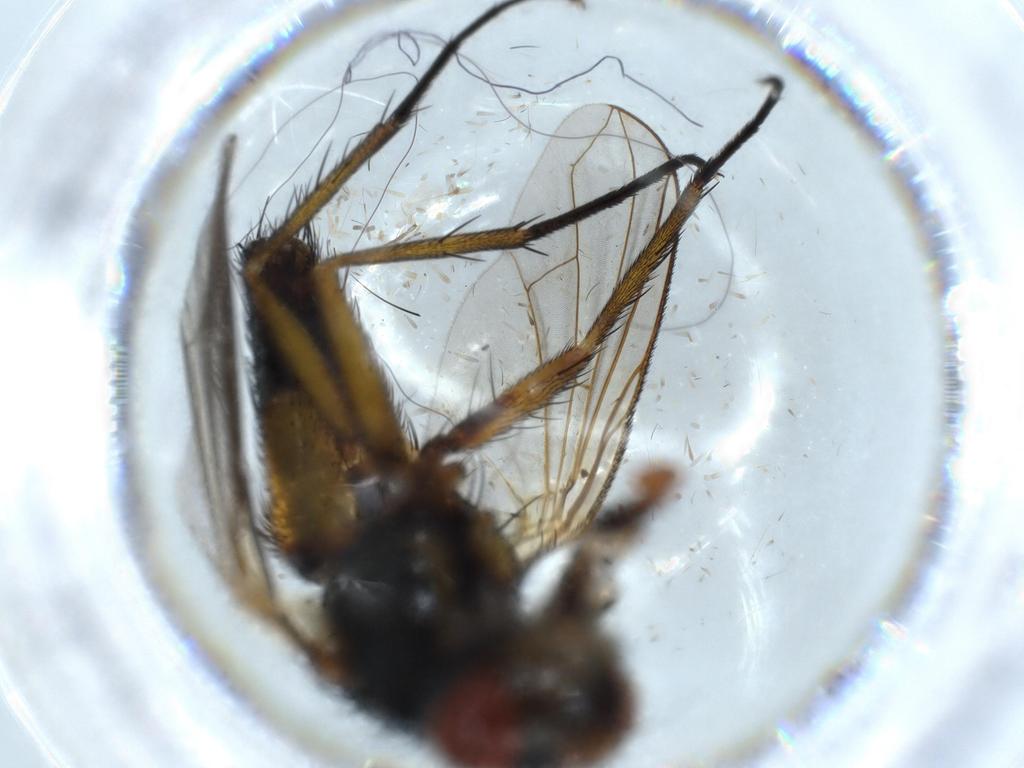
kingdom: Animalia
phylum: Arthropoda
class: Insecta
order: Diptera
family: Tachinidae
